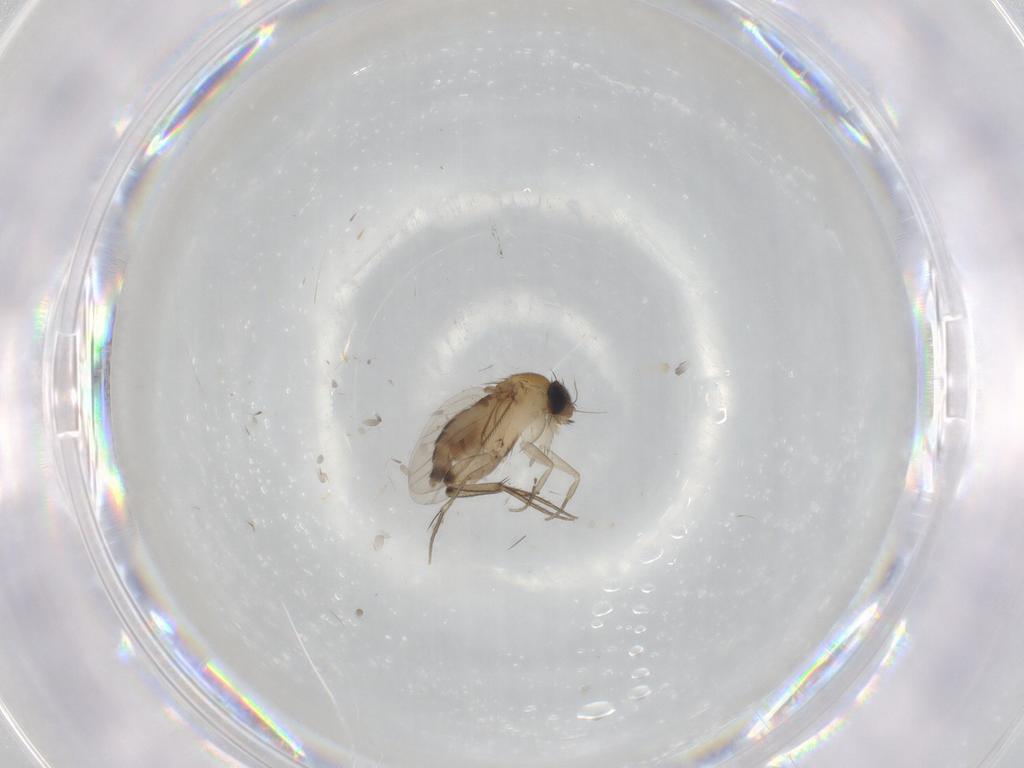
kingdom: Animalia
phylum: Arthropoda
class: Insecta
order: Diptera
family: Phoridae
